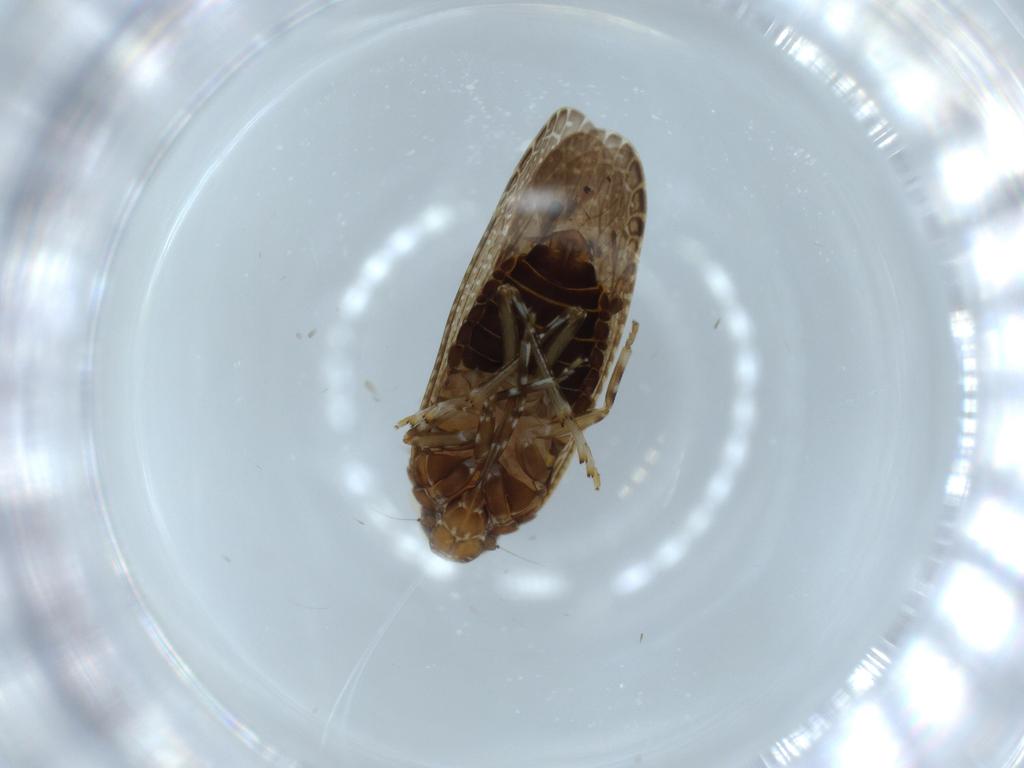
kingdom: Animalia
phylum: Arthropoda
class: Insecta
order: Hemiptera
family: Achilidae
